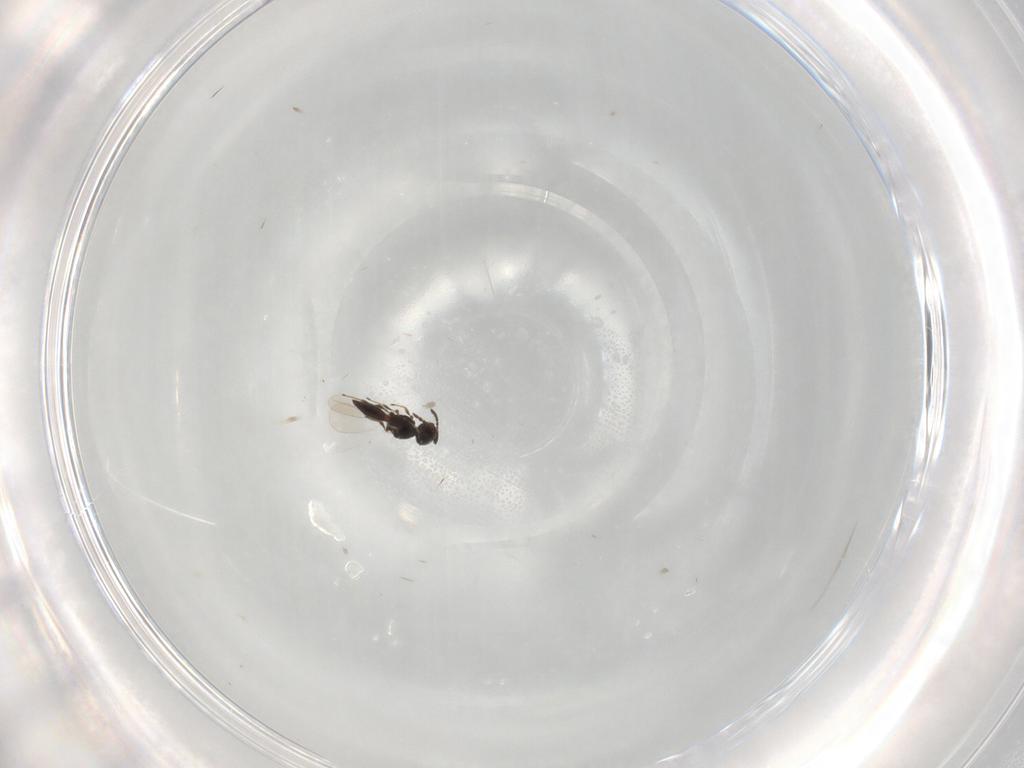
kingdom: Animalia
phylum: Arthropoda
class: Insecta
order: Hymenoptera
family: Platygastridae
